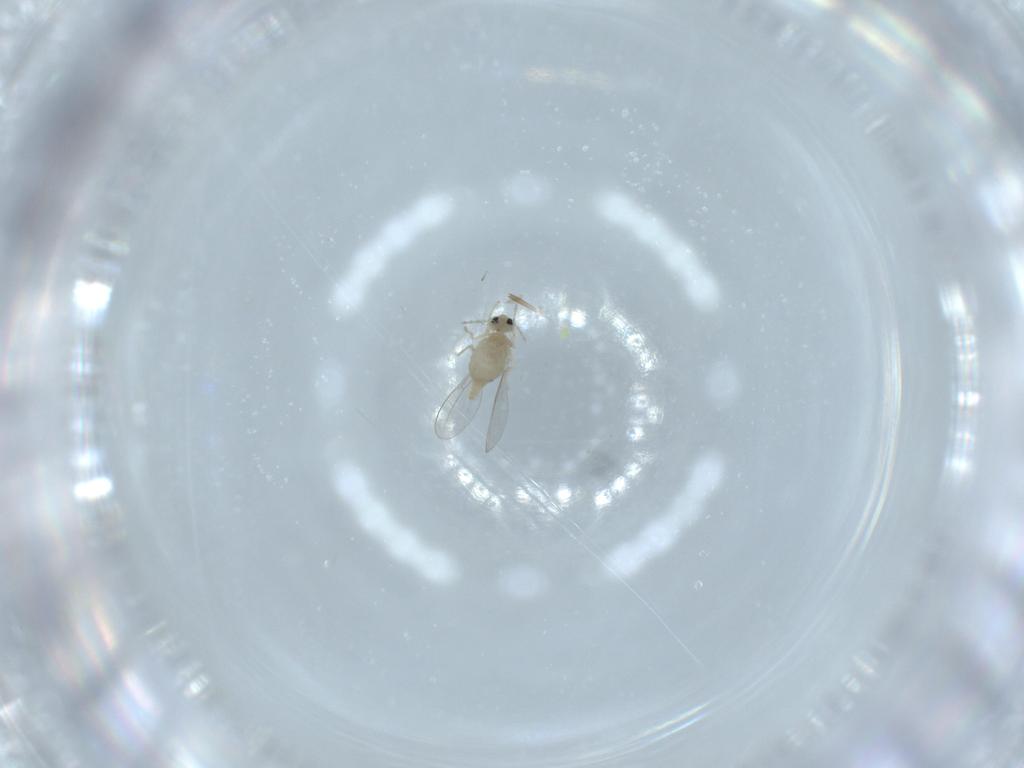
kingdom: Animalia
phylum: Arthropoda
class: Insecta
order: Diptera
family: Cecidomyiidae
